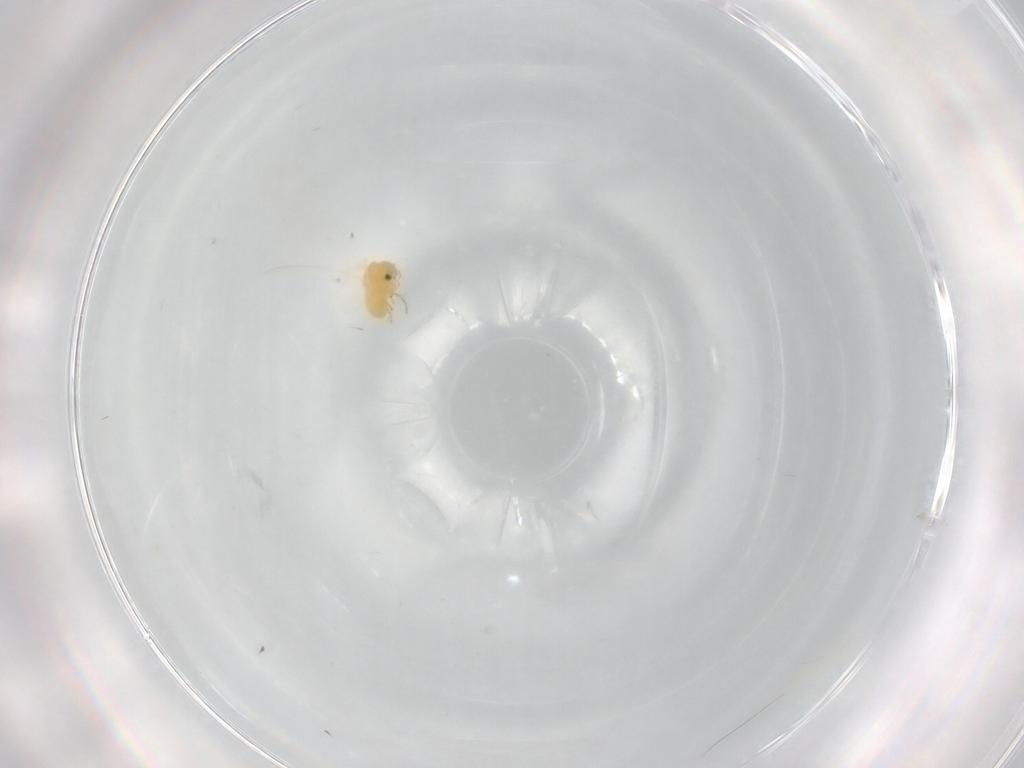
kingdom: Animalia
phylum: Arthropoda
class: Insecta
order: Hemiptera
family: Aleyrodidae
